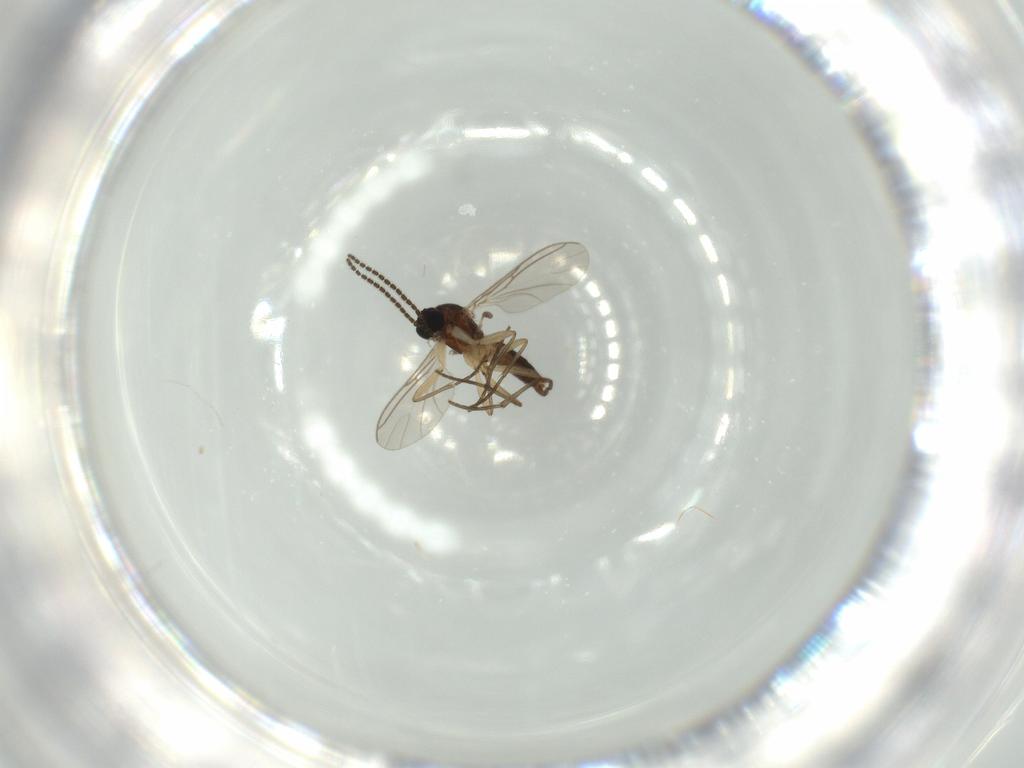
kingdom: Animalia
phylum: Arthropoda
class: Insecta
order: Diptera
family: Sciaridae
